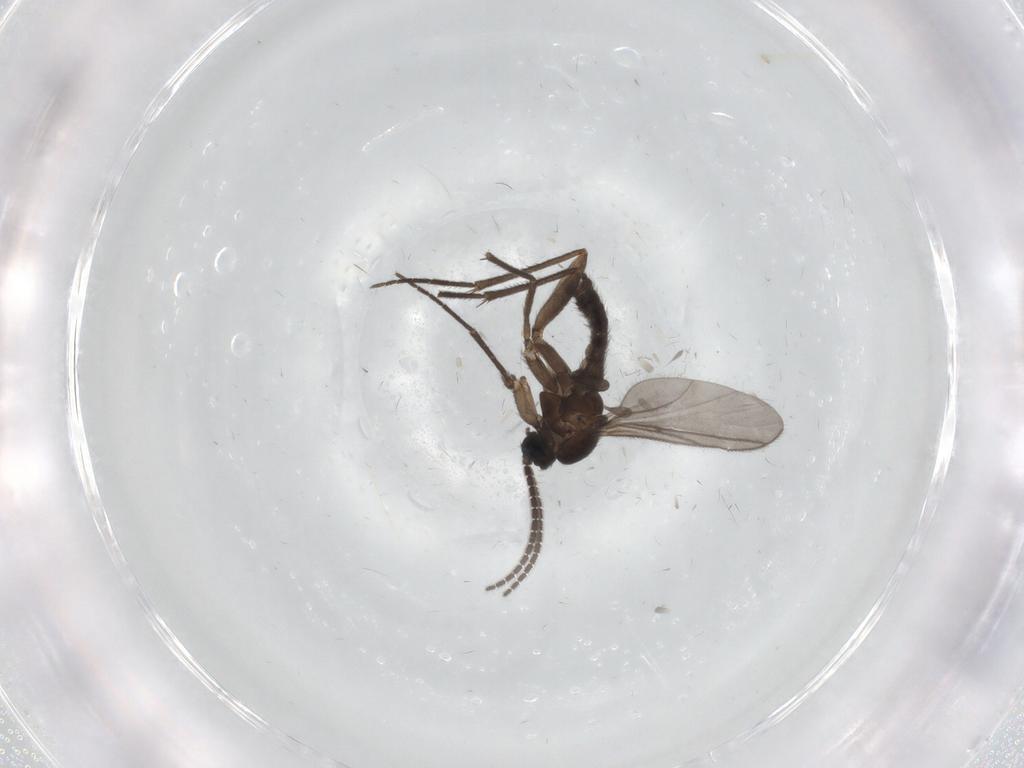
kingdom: Animalia
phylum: Arthropoda
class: Insecta
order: Diptera
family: Sciaridae
